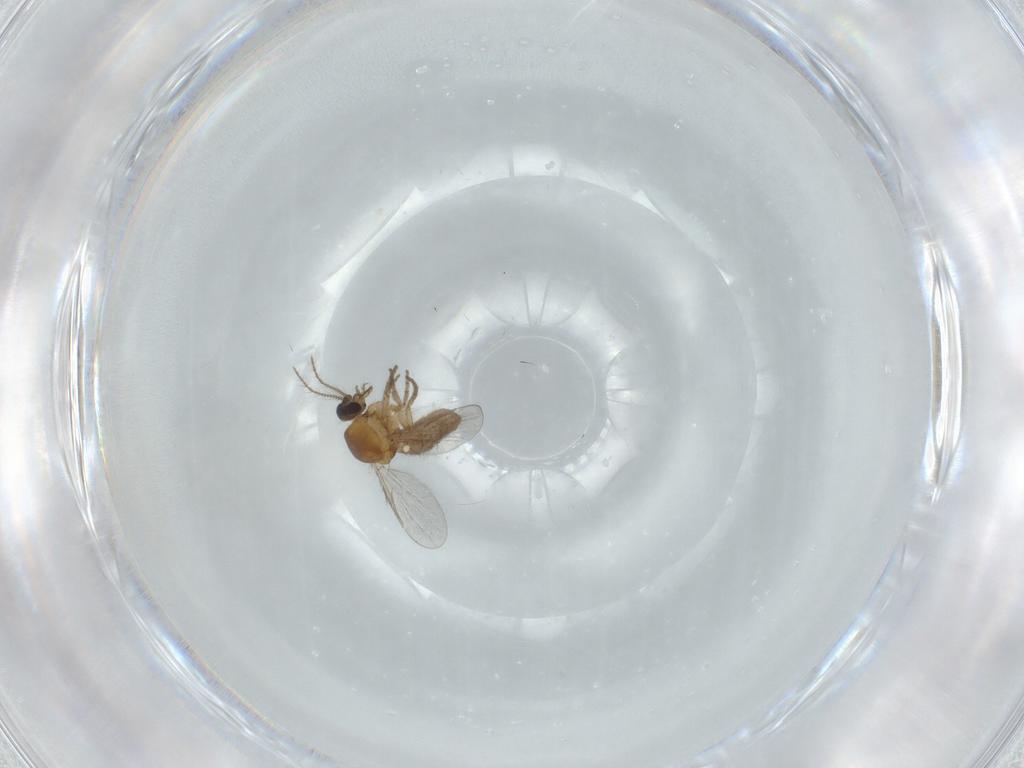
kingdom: Animalia
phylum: Arthropoda
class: Insecta
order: Diptera
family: Ceratopogonidae
